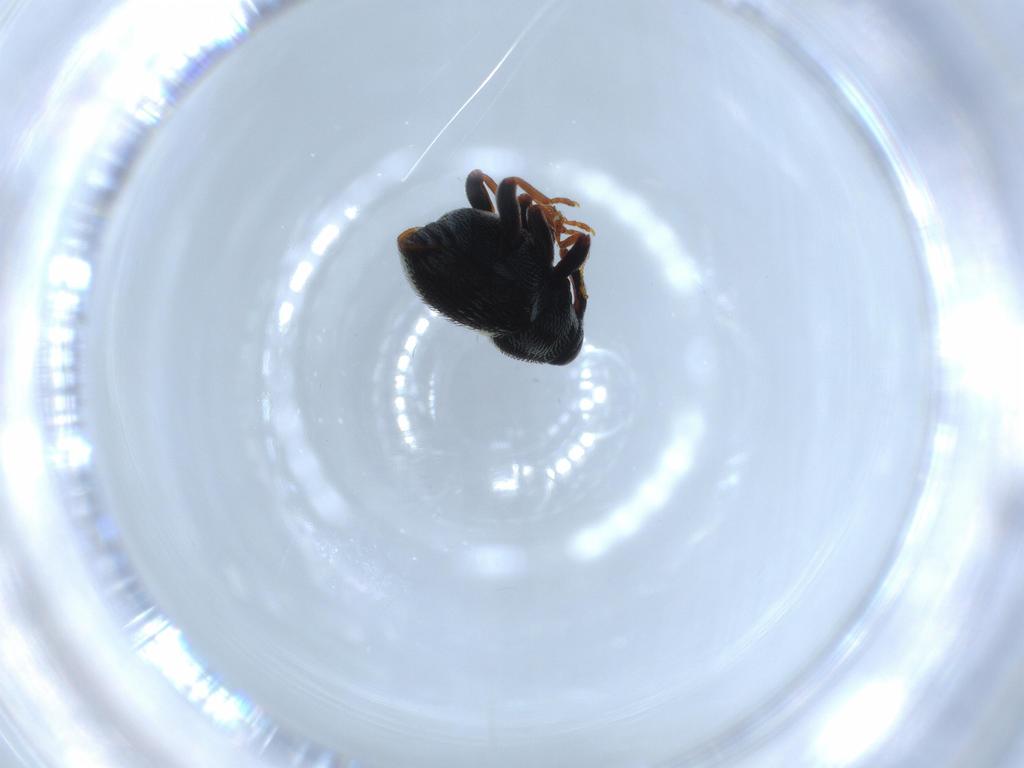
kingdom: Animalia
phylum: Arthropoda
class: Insecta
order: Coleoptera
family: Curculionidae
